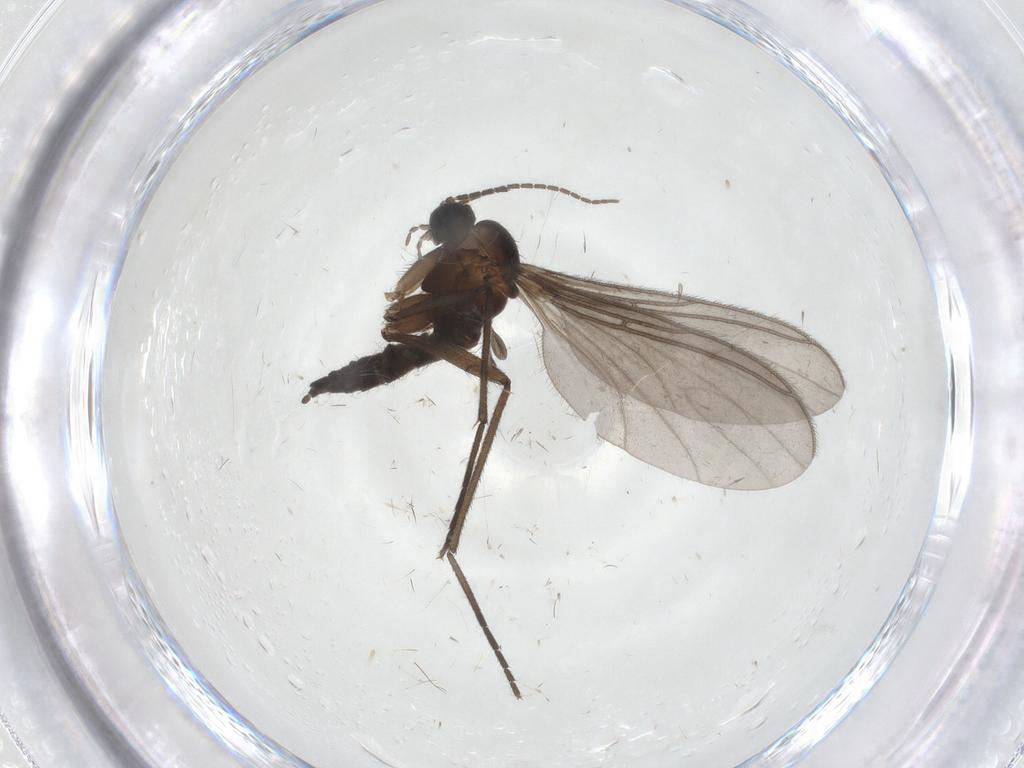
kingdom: Animalia
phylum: Arthropoda
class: Insecta
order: Diptera
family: Sciaridae
